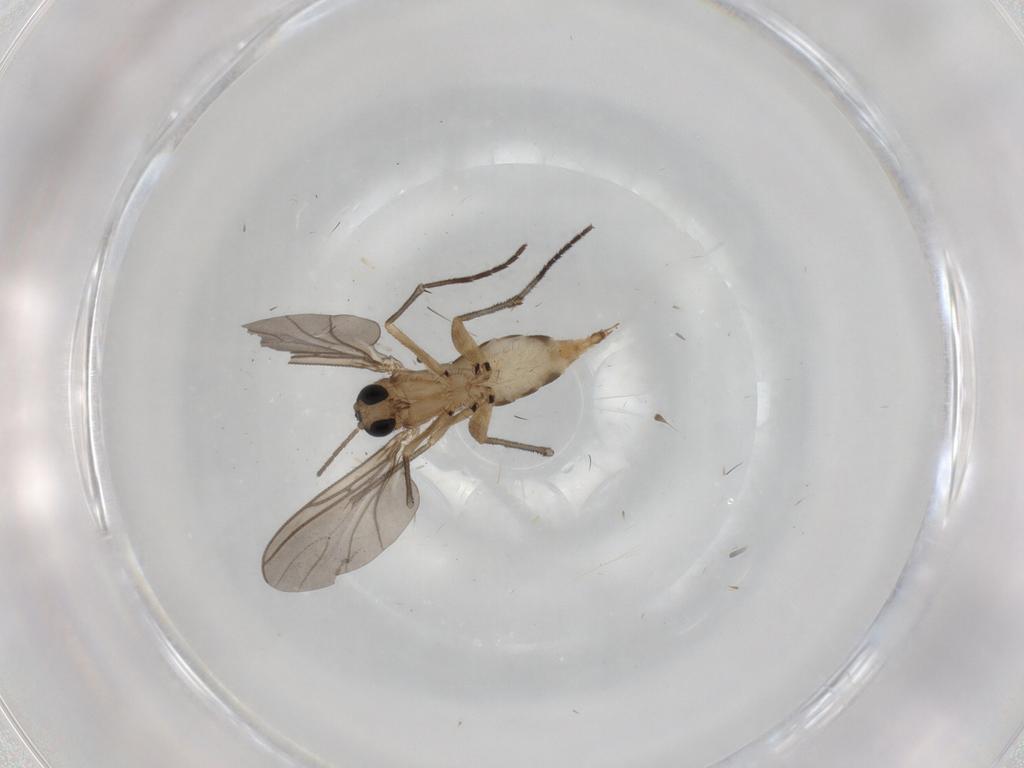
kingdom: Animalia
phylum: Arthropoda
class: Insecta
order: Diptera
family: Sciaridae
